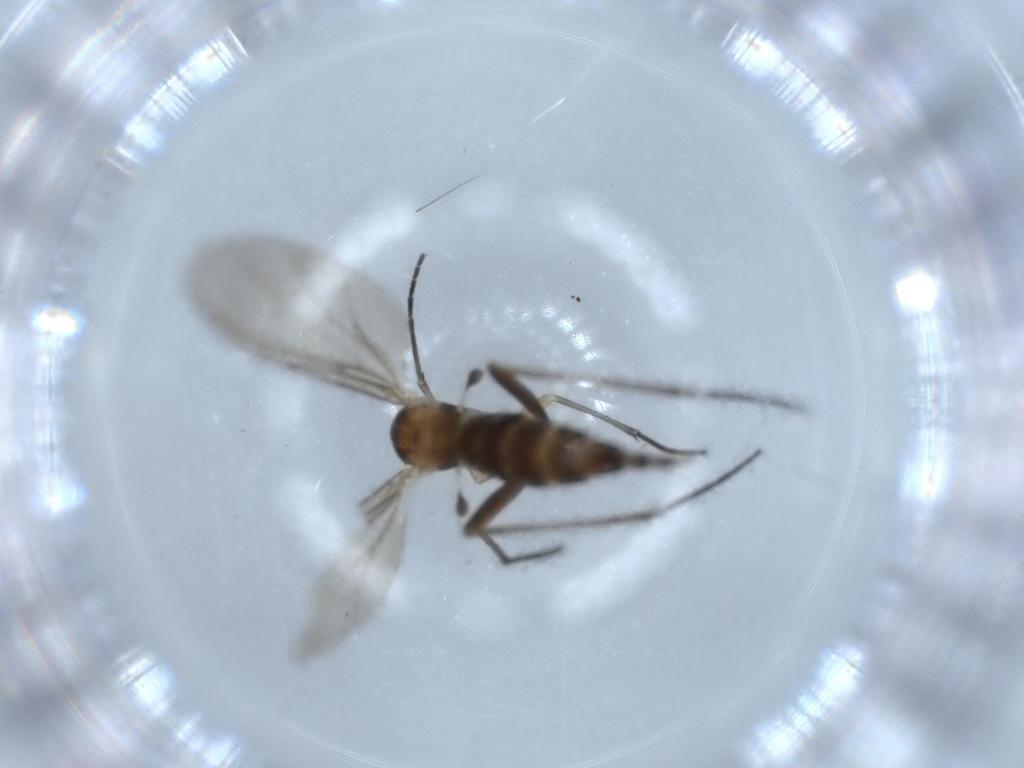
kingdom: Animalia
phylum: Arthropoda
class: Insecta
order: Diptera
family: Sciaridae
